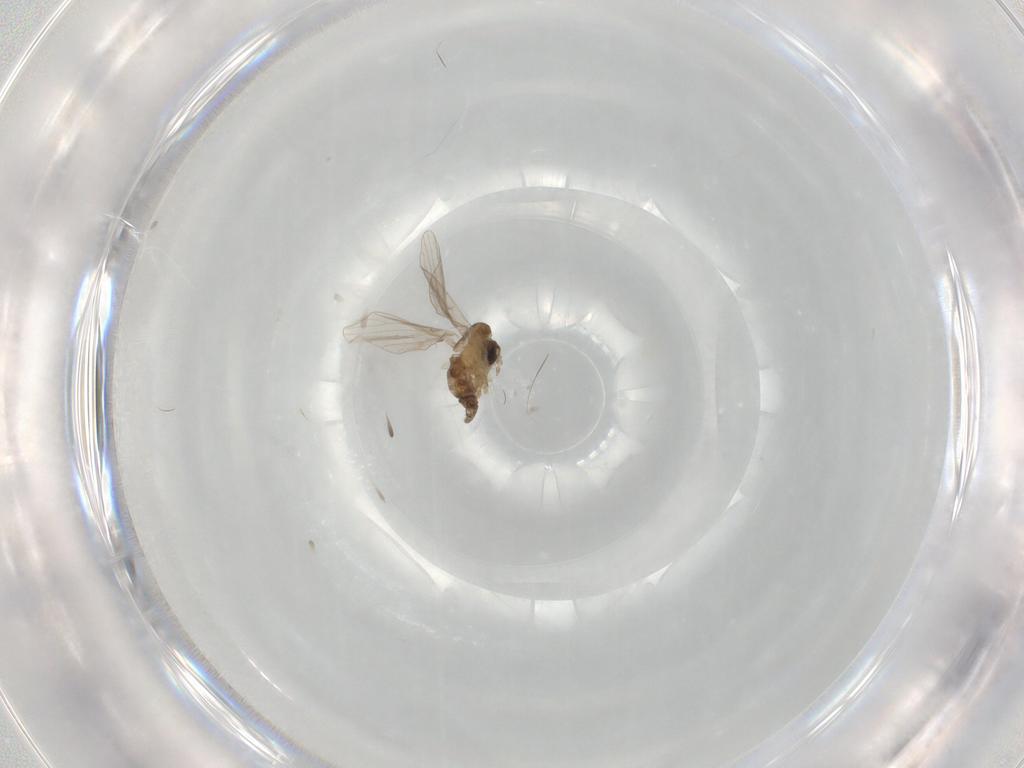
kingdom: Animalia
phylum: Arthropoda
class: Insecta
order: Diptera
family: Psychodidae
